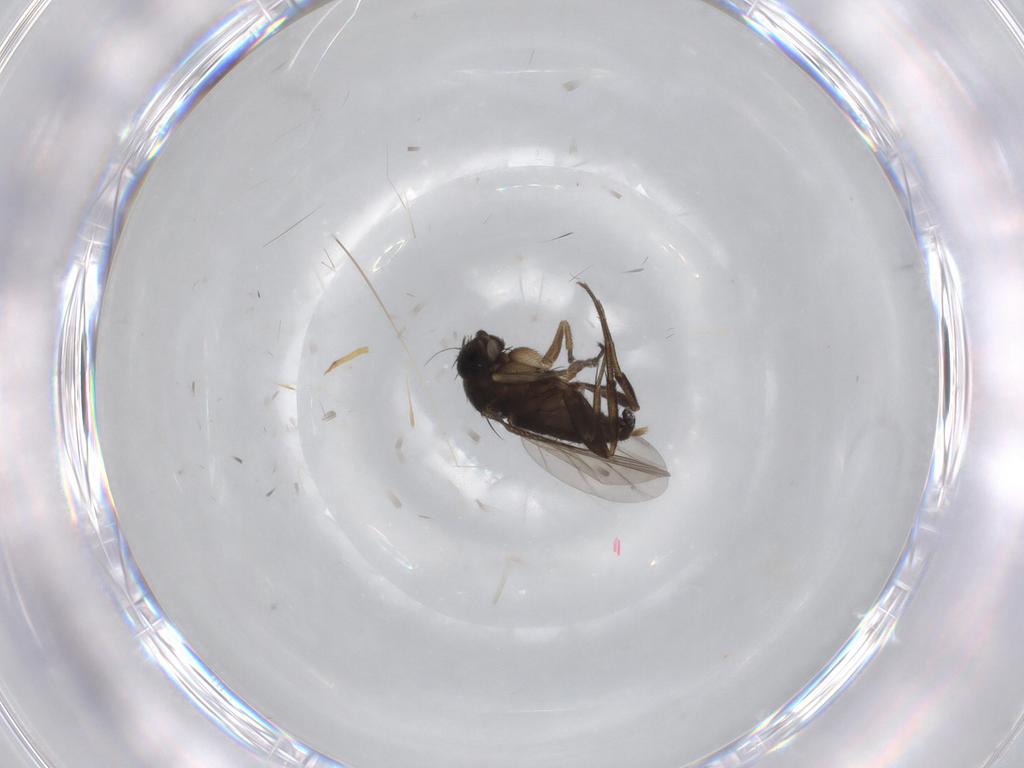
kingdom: Animalia
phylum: Arthropoda
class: Insecta
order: Diptera
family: Phoridae
